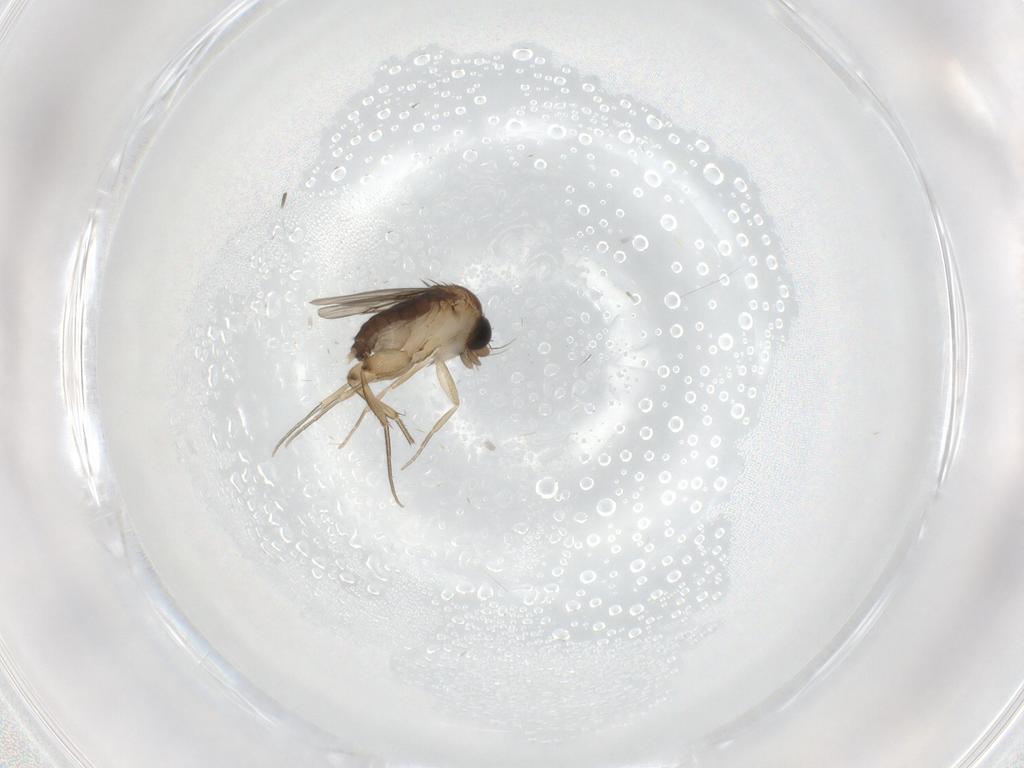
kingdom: Animalia
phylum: Arthropoda
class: Insecta
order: Diptera
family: Phoridae
